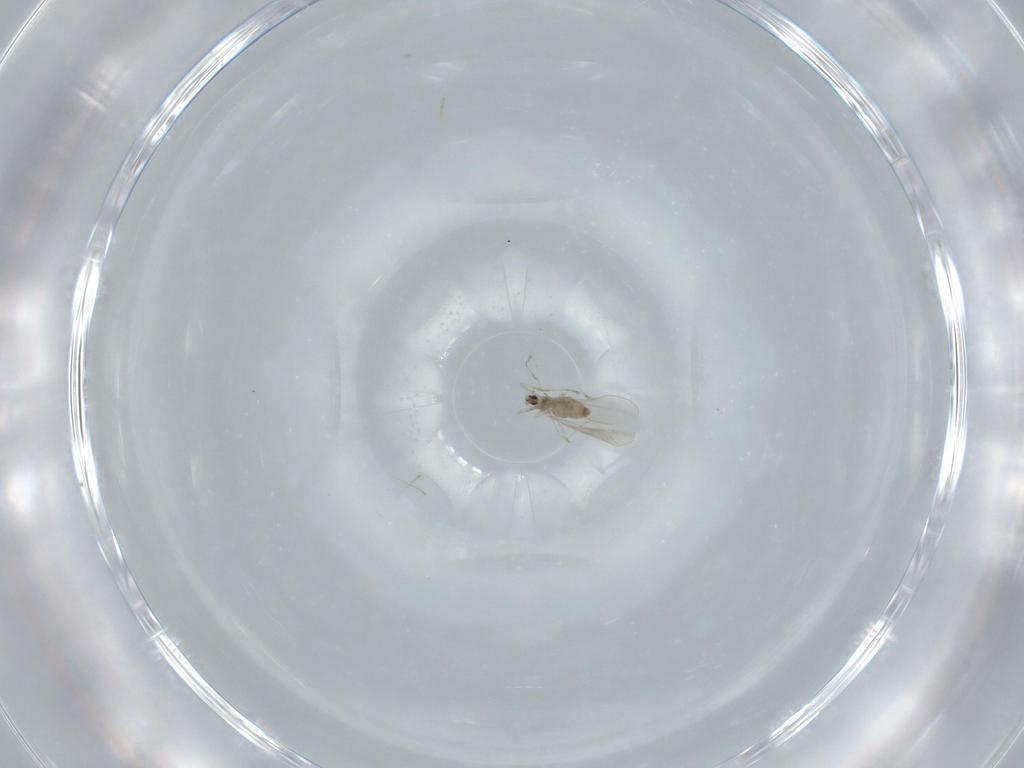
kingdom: Animalia
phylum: Arthropoda
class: Insecta
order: Diptera
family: Cecidomyiidae
